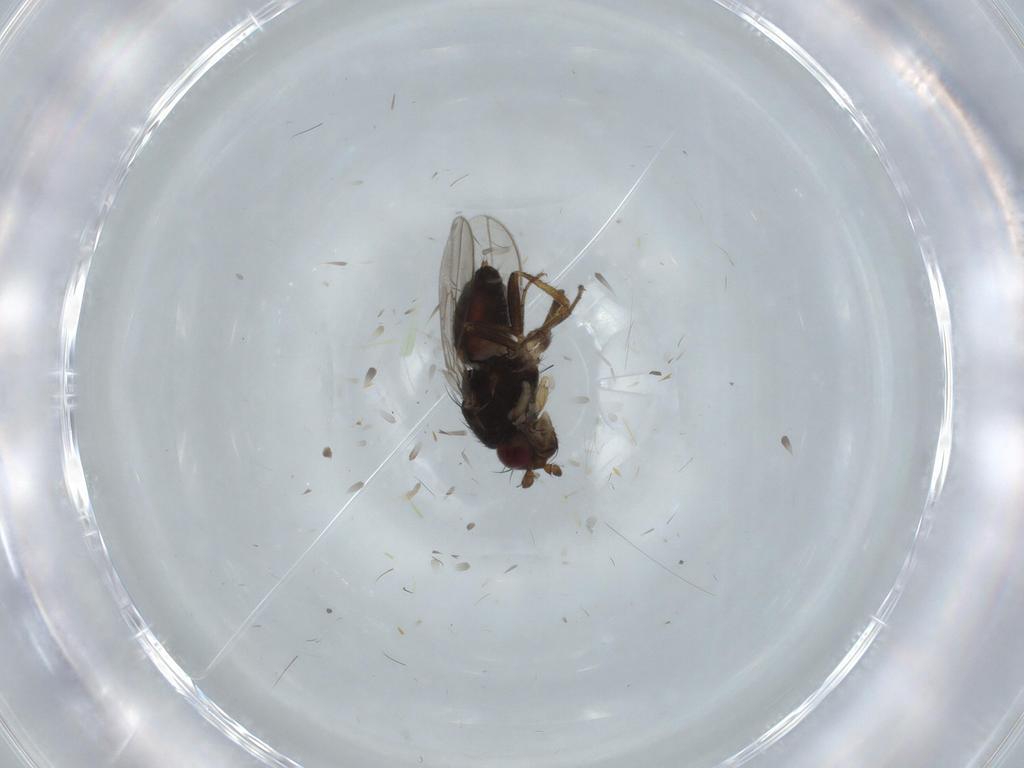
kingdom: Animalia
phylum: Arthropoda
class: Insecta
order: Diptera
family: Sphaeroceridae
